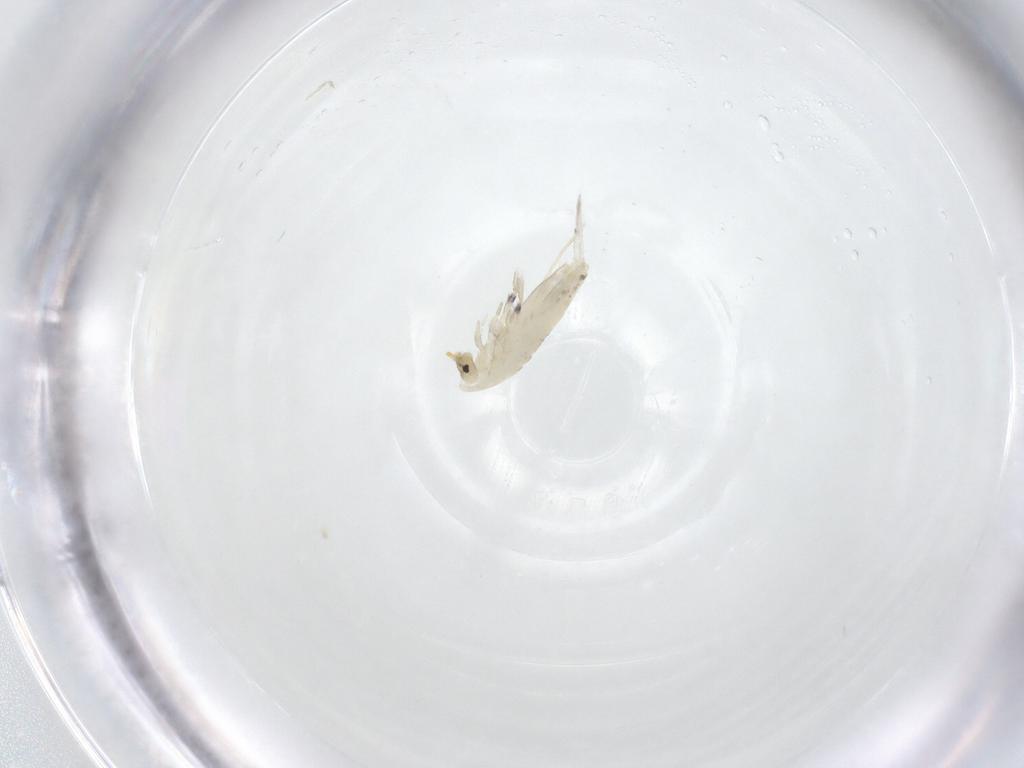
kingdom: Animalia
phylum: Arthropoda
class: Collembola
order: Entomobryomorpha
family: Entomobryidae
